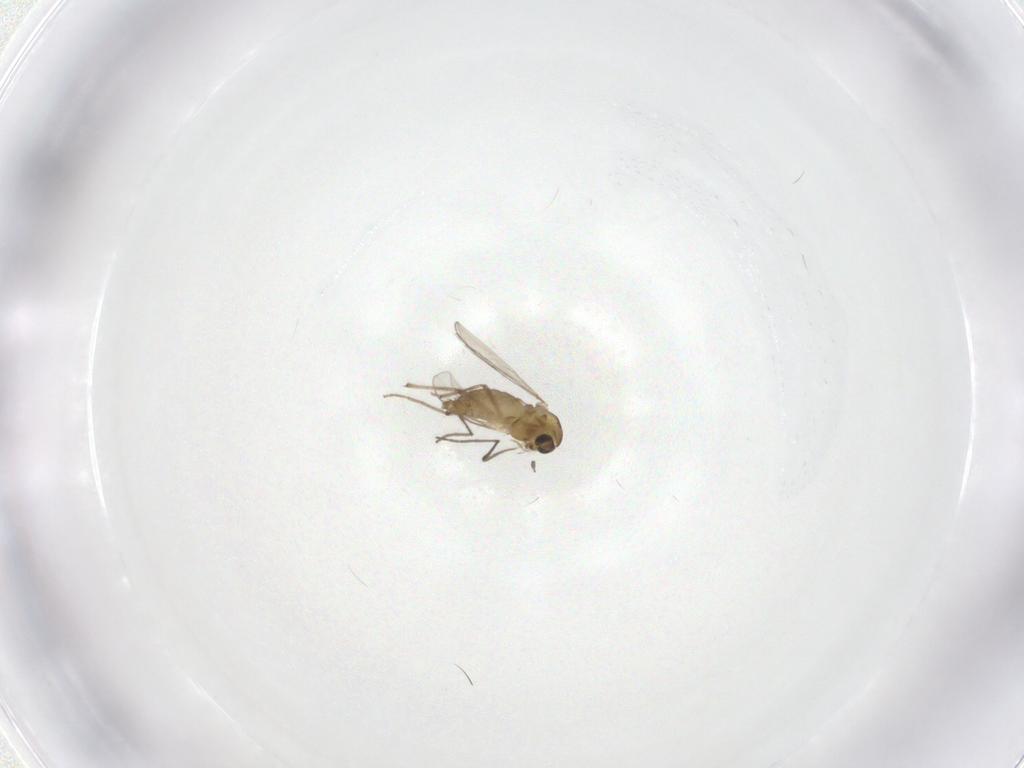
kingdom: Animalia
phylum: Arthropoda
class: Insecta
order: Diptera
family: Chironomidae
